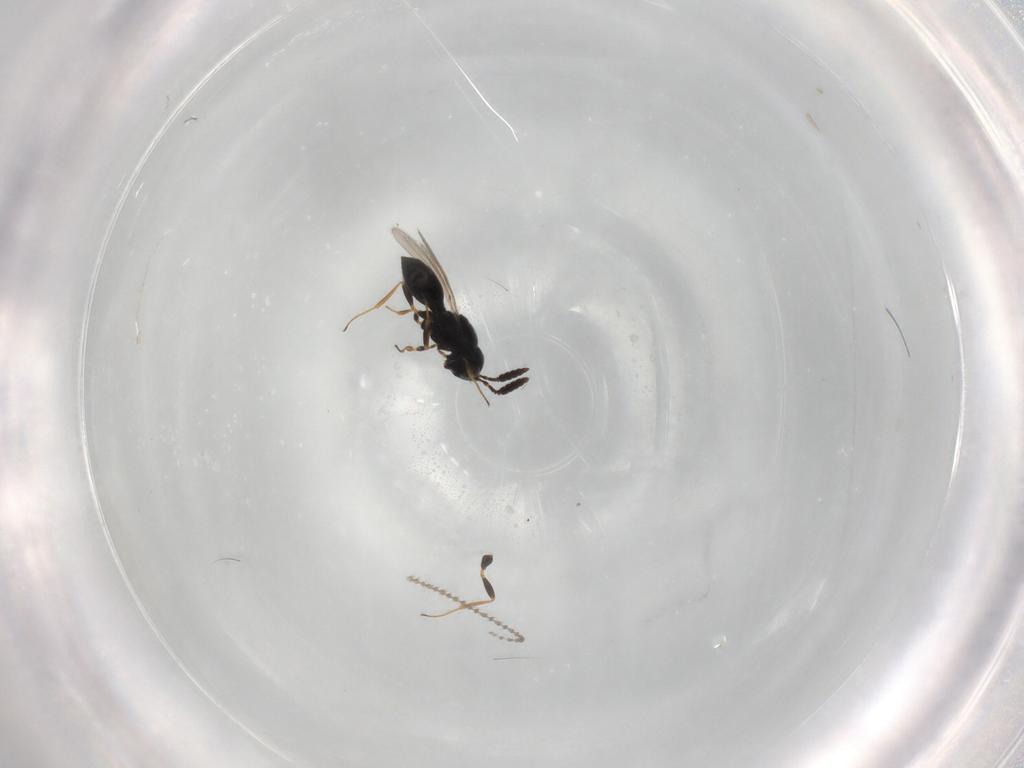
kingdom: Animalia
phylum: Arthropoda
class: Insecta
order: Hymenoptera
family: Scelionidae
